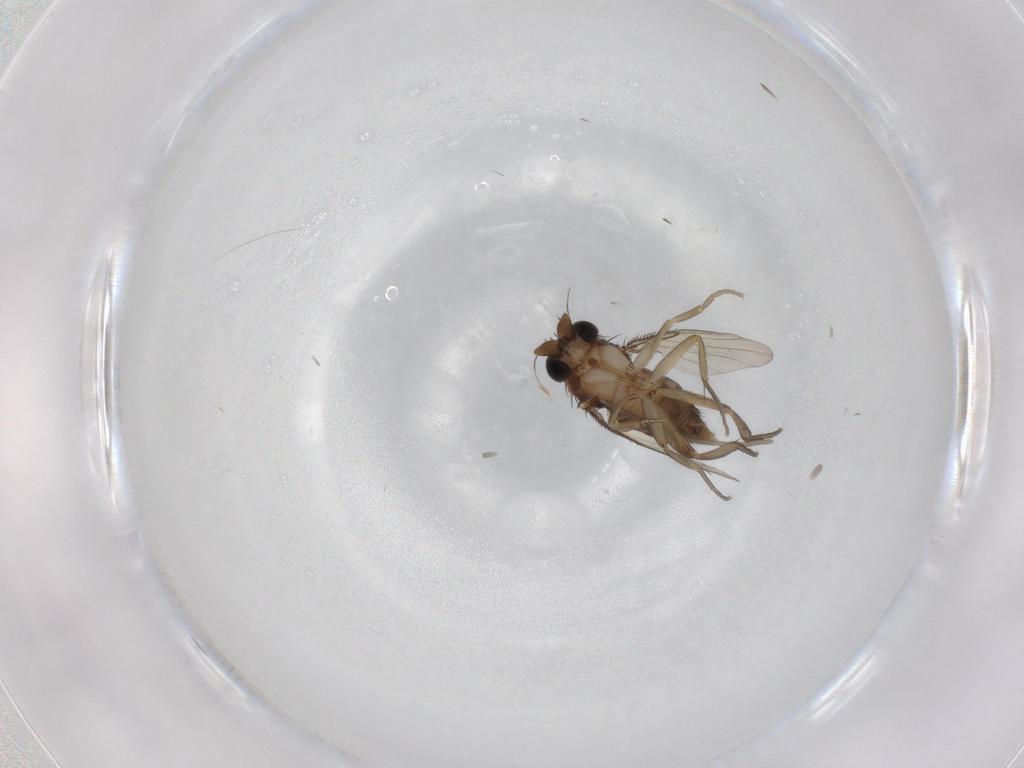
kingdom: Animalia
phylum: Arthropoda
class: Insecta
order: Diptera
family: Phoridae
